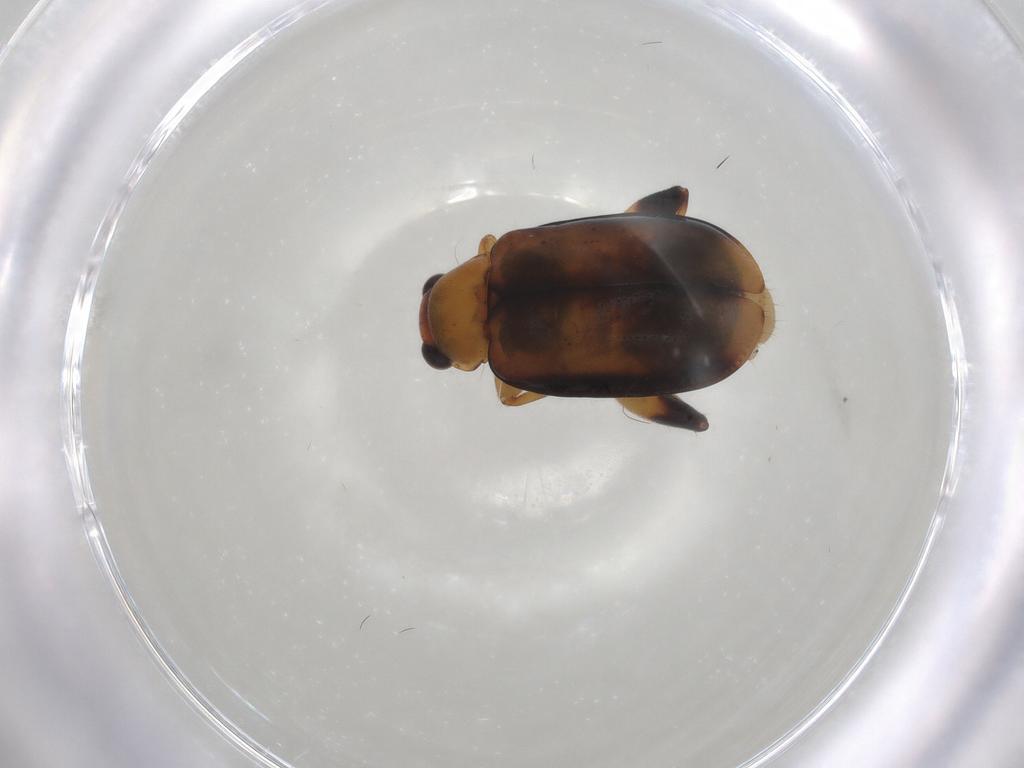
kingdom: Animalia
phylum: Arthropoda
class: Insecta
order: Coleoptera
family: Chrysomelidae
